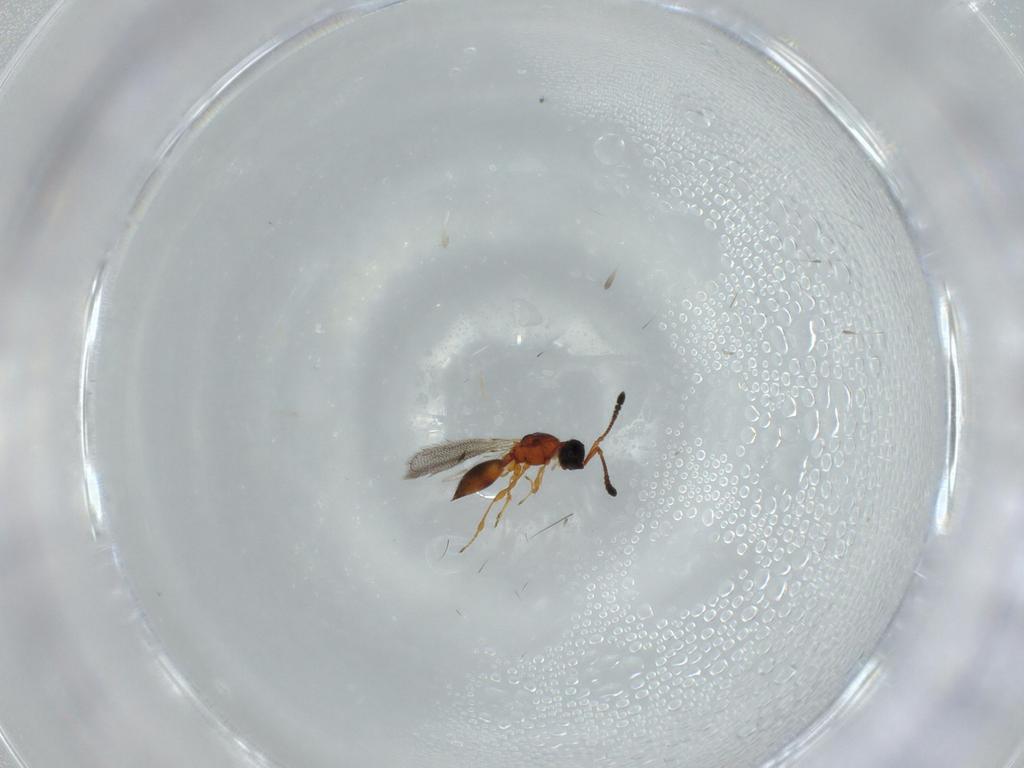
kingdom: Animalia
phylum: Arthropoda
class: Insecta
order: Hymenoptera
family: Diapriidae
